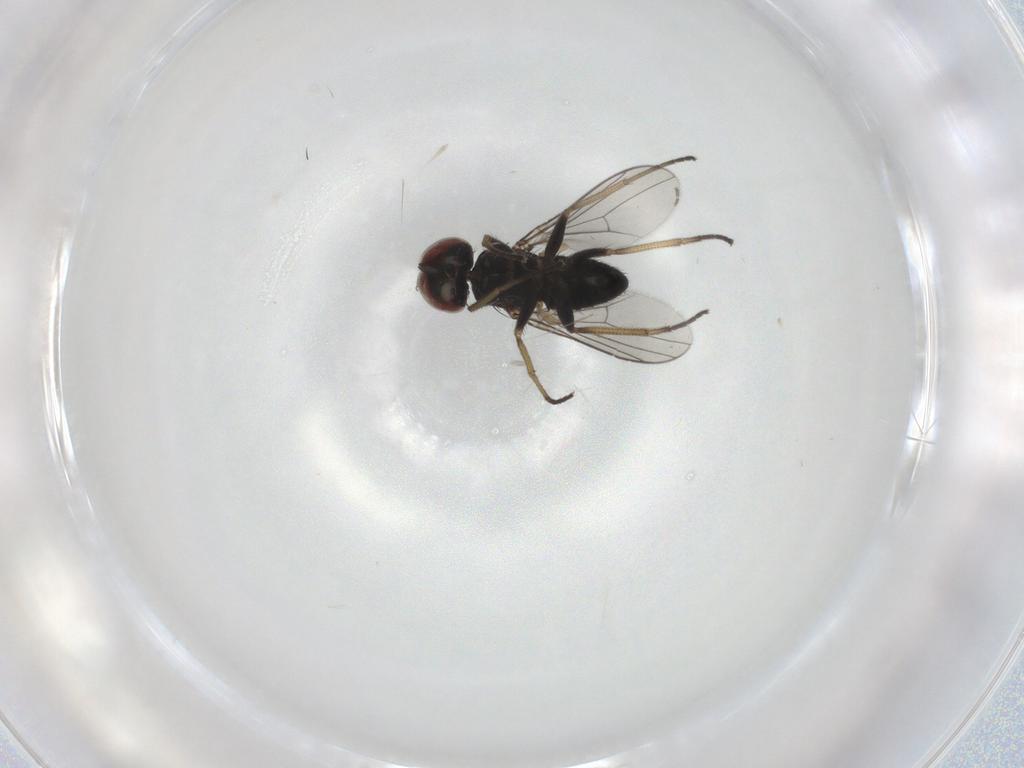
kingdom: Animalia
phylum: Arthropoda
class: Insecta
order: Diptera
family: Dolichopodidae
